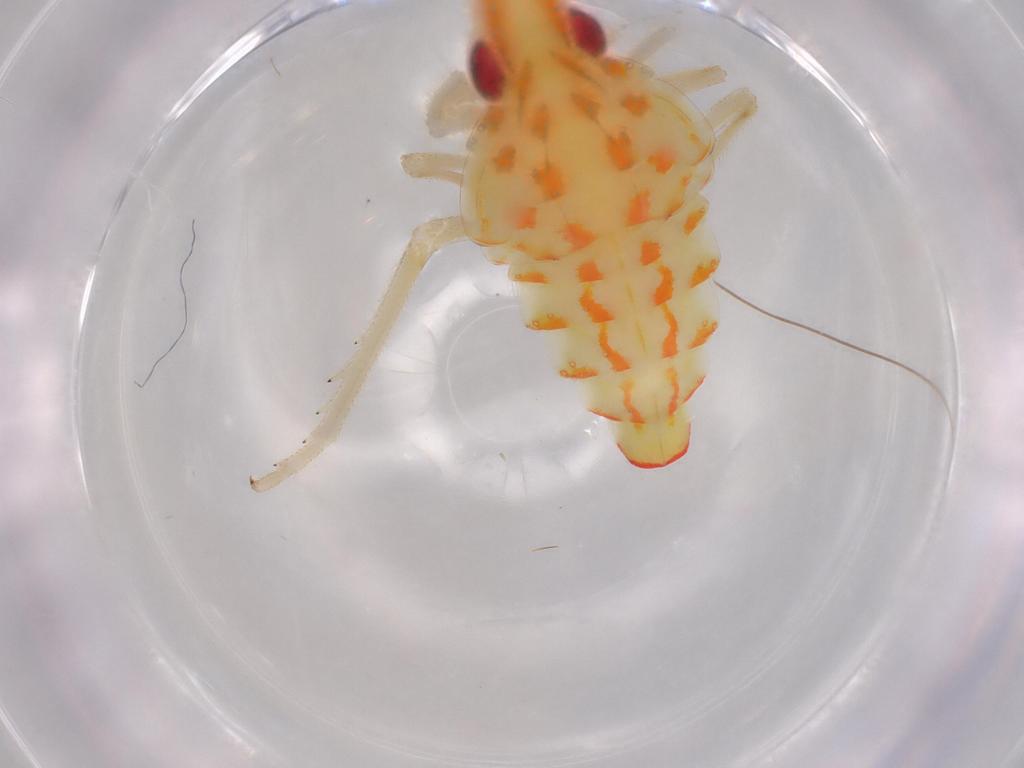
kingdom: Animalia
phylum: Arthropoda
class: Insecta
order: Hemiptera
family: Tropiduchidae
